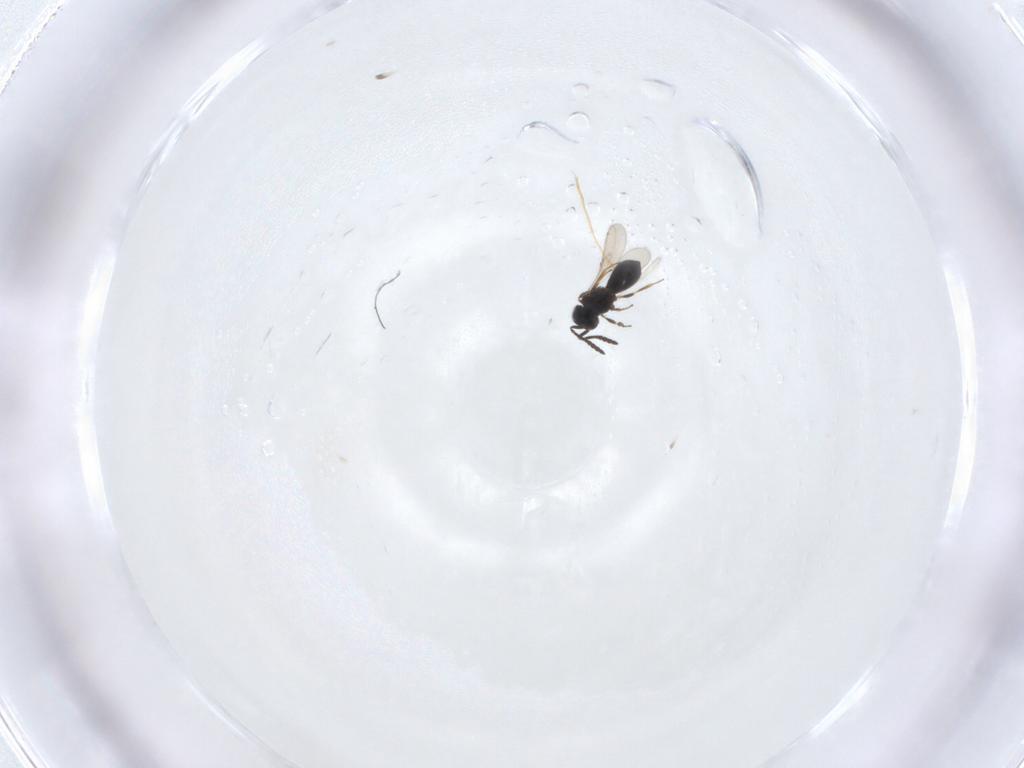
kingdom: Animalia
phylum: Arthropoda
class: Insecta
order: Hymenoptera
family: Scelionidae
